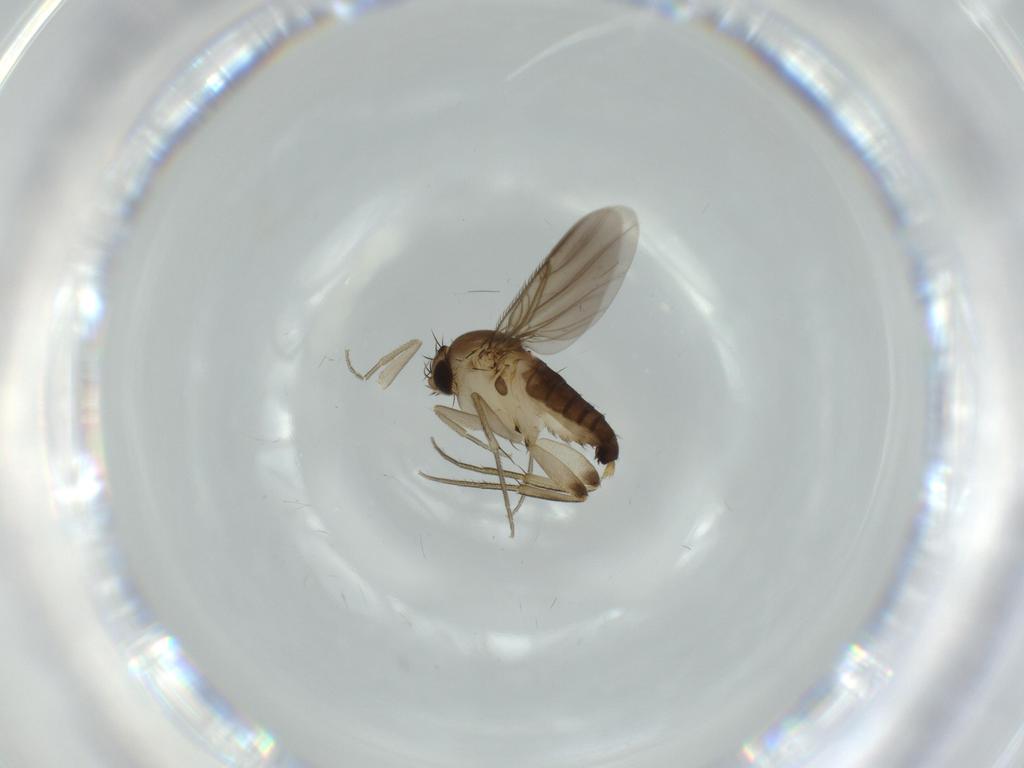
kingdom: Animalia
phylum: Arthropoda
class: Insecta
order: Diptera
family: Phoridae
